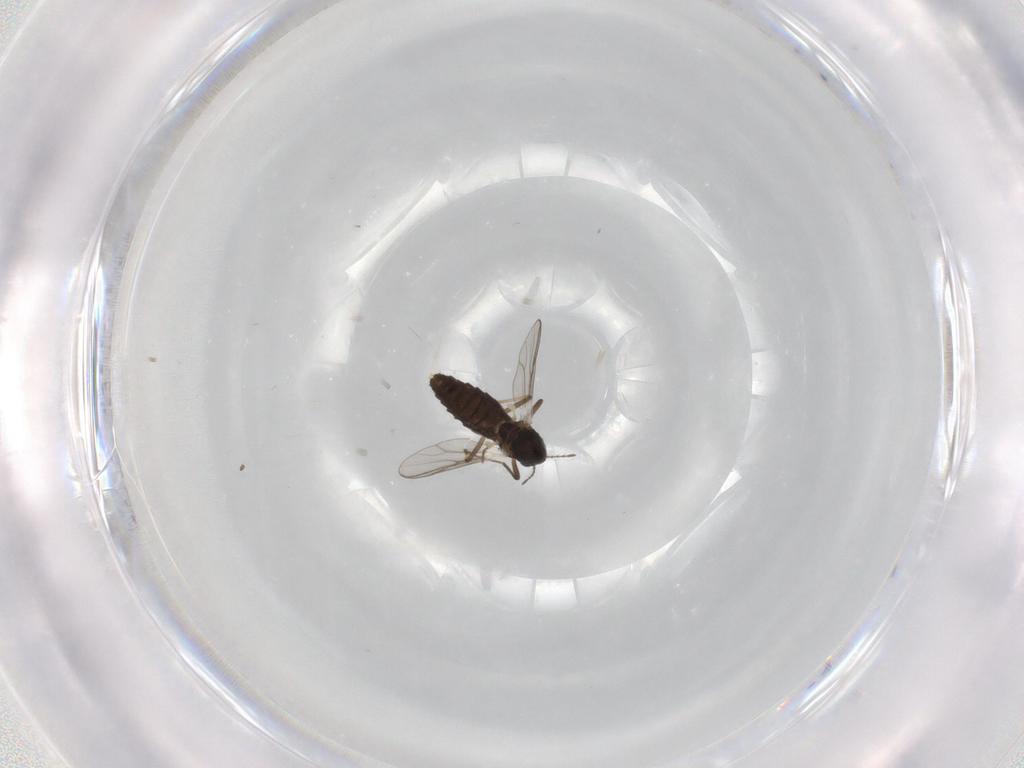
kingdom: Animalia
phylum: Arthropoda
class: Insecta
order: Diptera
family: Chironomidae
